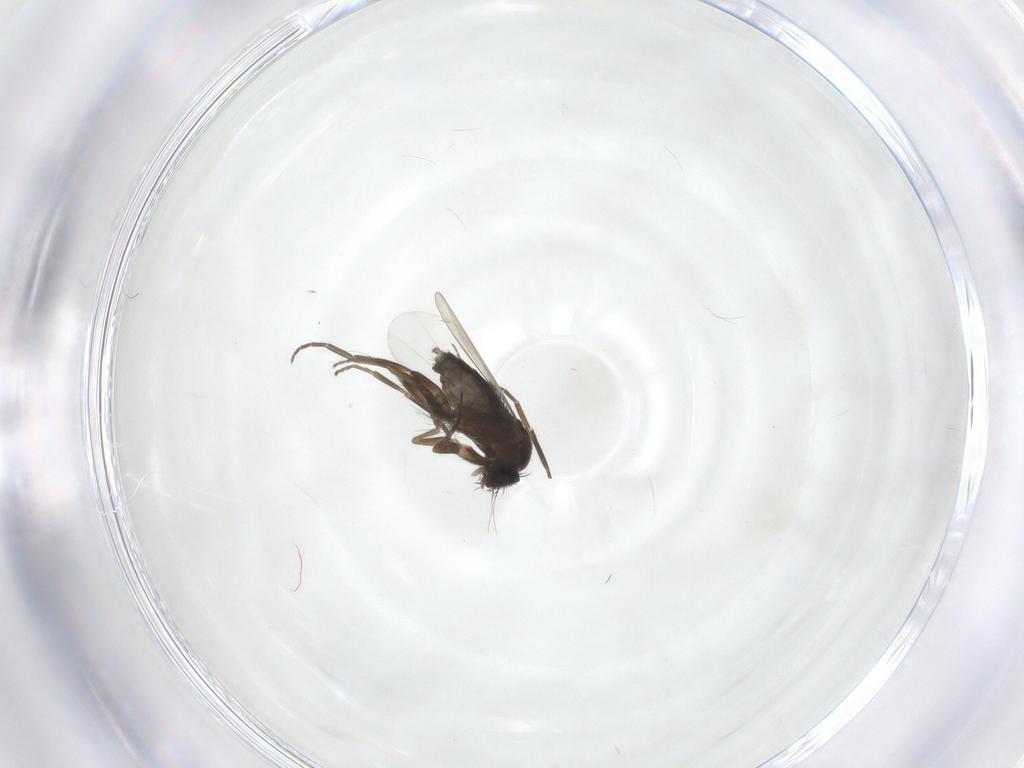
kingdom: Animalia
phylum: Arthropoda
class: Insecta
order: Diptera
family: Phoridae
